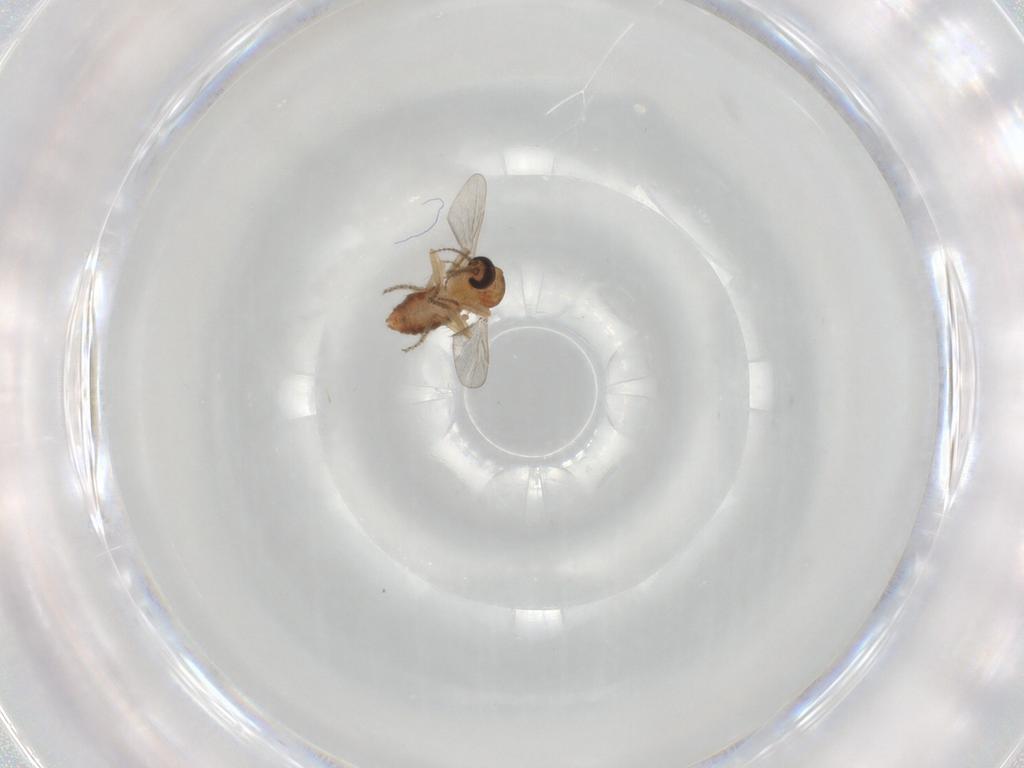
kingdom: Animalia
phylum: Arthropoda
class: Insecta
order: Diptera
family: Ceratopogonidae
